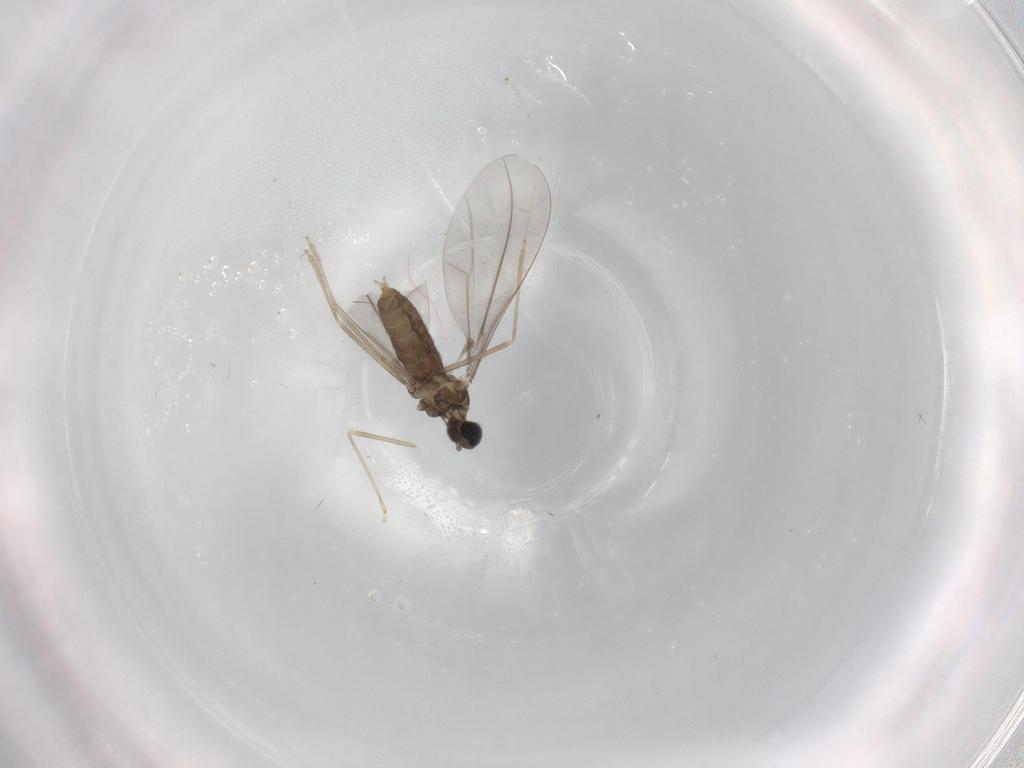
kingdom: Animalia
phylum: Arthropoda
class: Insecta
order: Diptera
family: Cecidomyiidae
